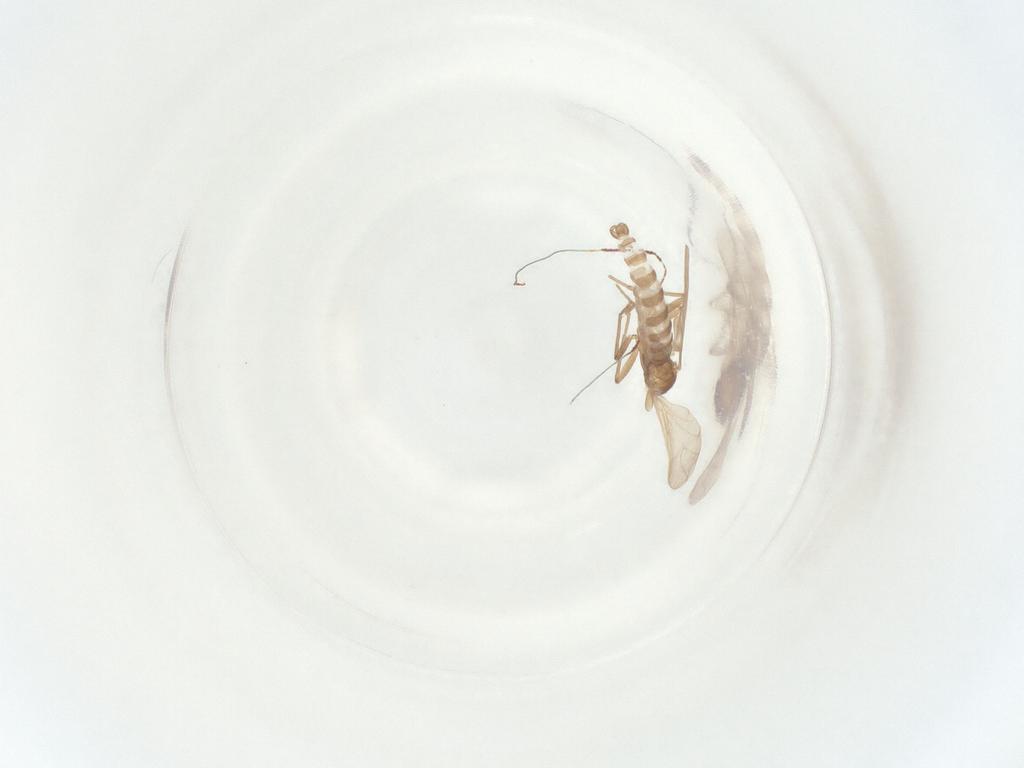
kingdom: Animalia
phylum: Arthropoda
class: Insecta
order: Diptera
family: Sciaridae
